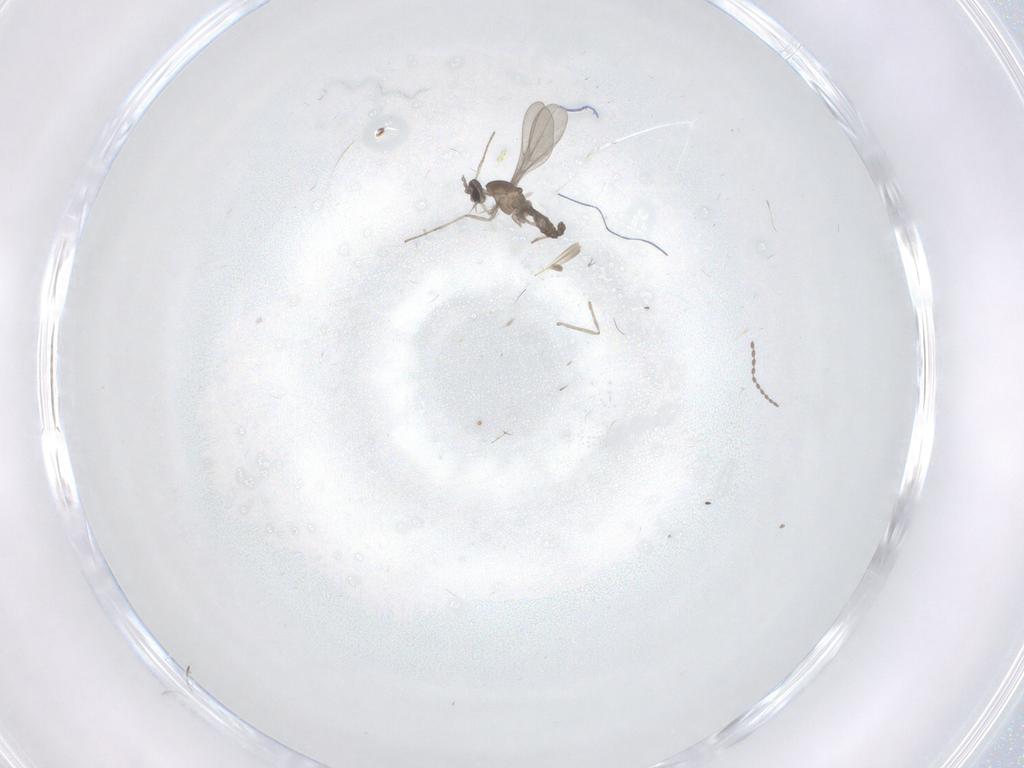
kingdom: Animalia
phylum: Arthropoda
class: Insecta
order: Diptera
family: Cecidomyiidae
